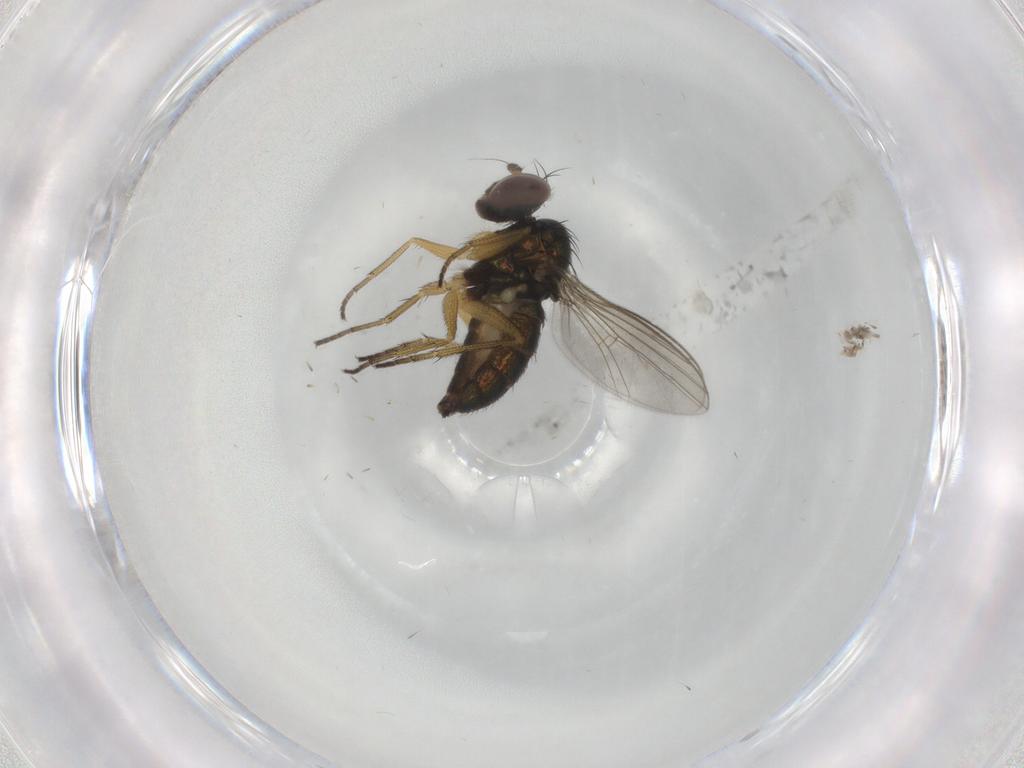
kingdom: Animalia
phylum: Arthropoda
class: Insecta
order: Diptera
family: Dolichopodidae
